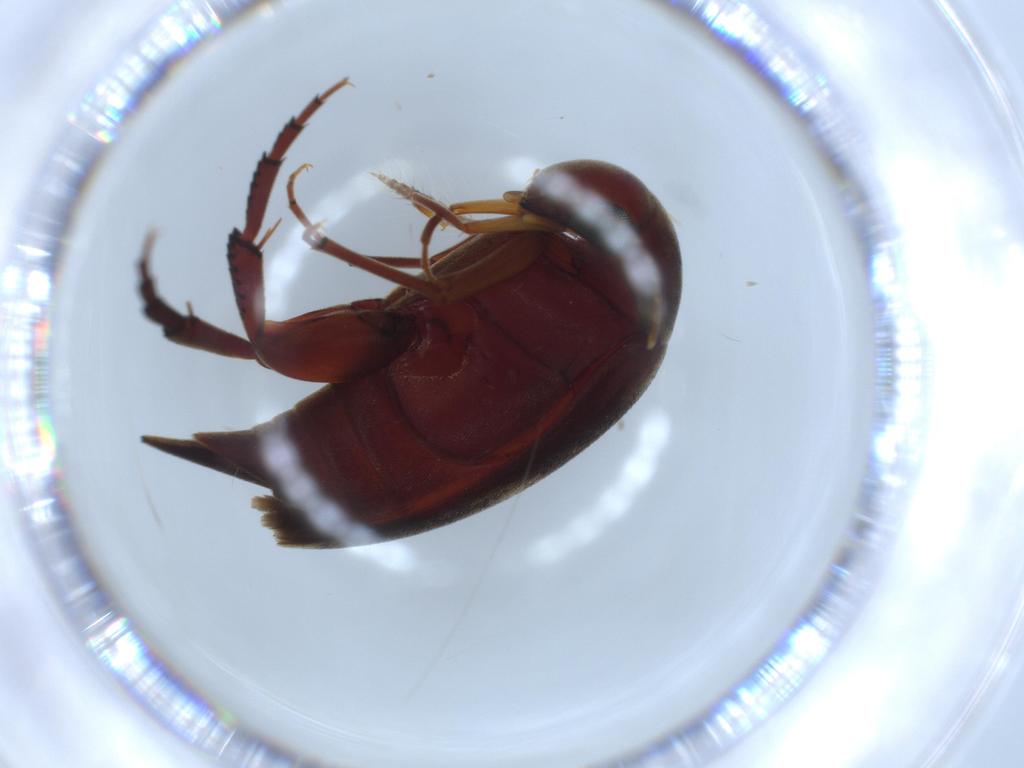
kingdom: Animalia
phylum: Arthropoda
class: Insecta
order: Coleoptera
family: Mordellidae
